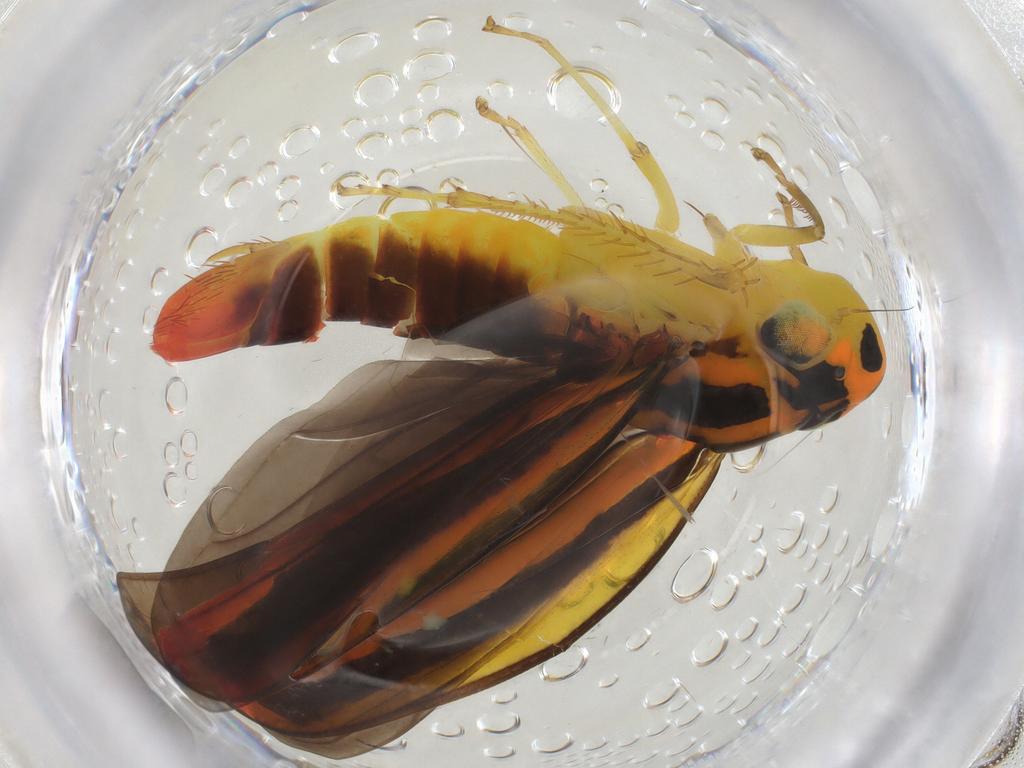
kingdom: Animalia
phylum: Arthropoda
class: Insecta
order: Hemiptera
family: Cicadellidae
